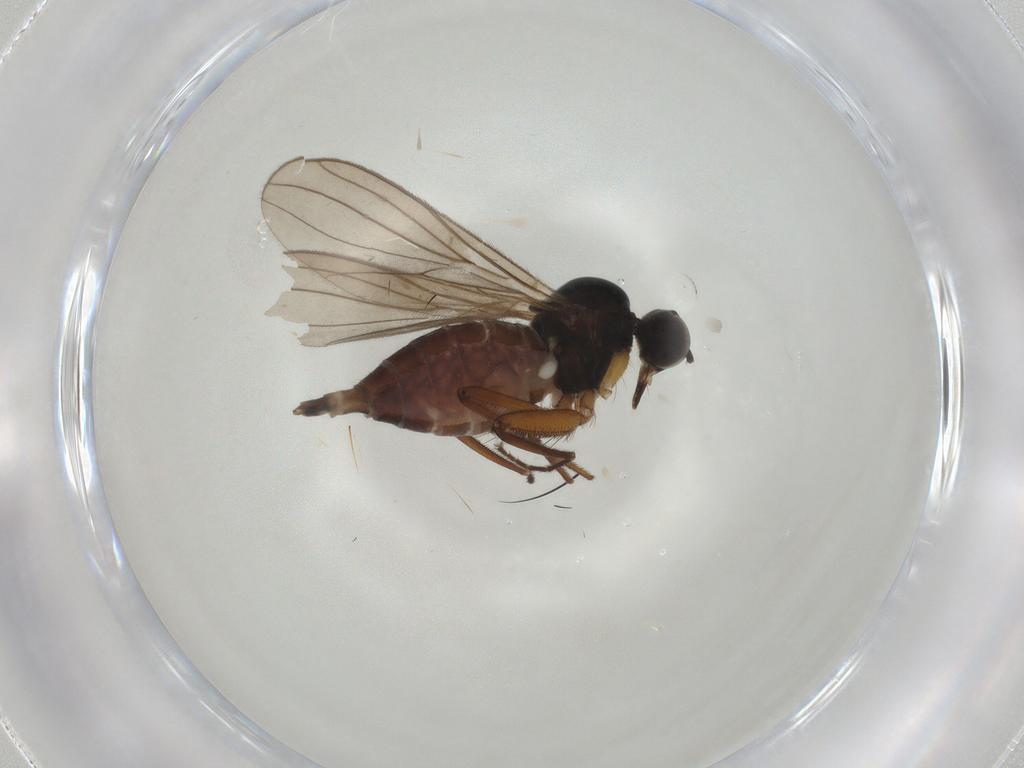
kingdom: Animalia
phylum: Arthropoda
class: Insecta
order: Diptera
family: Hybotidae
